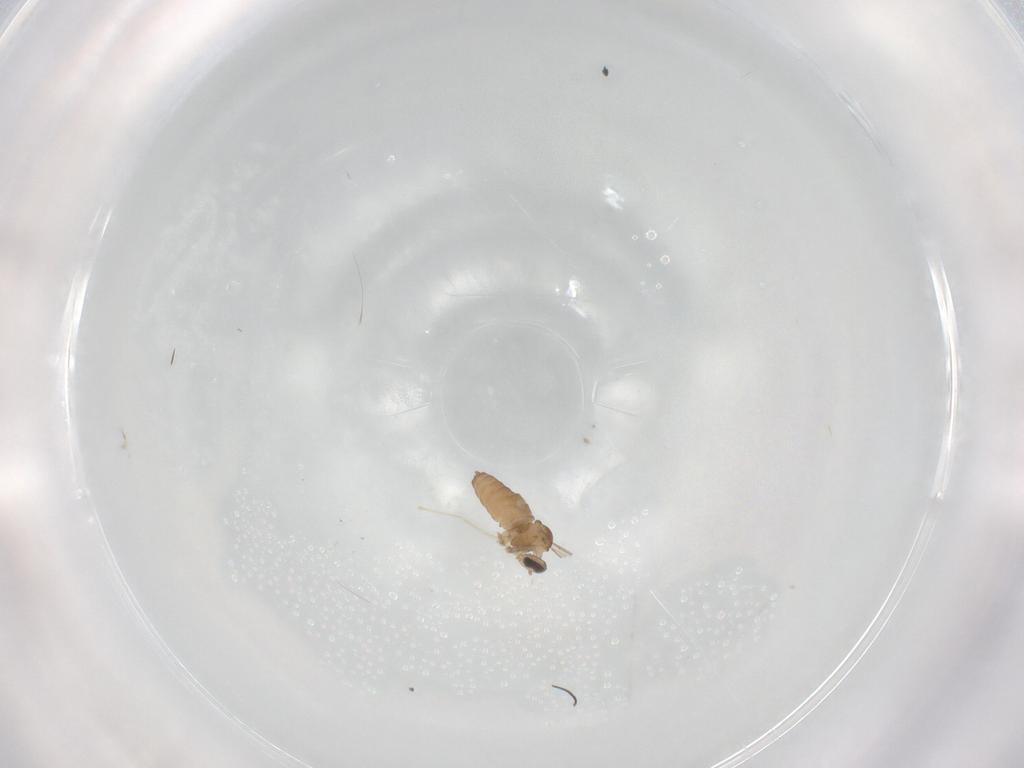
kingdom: Animalia
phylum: Arthropoda
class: Insecta
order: Diptera
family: Cecidomyiidae
